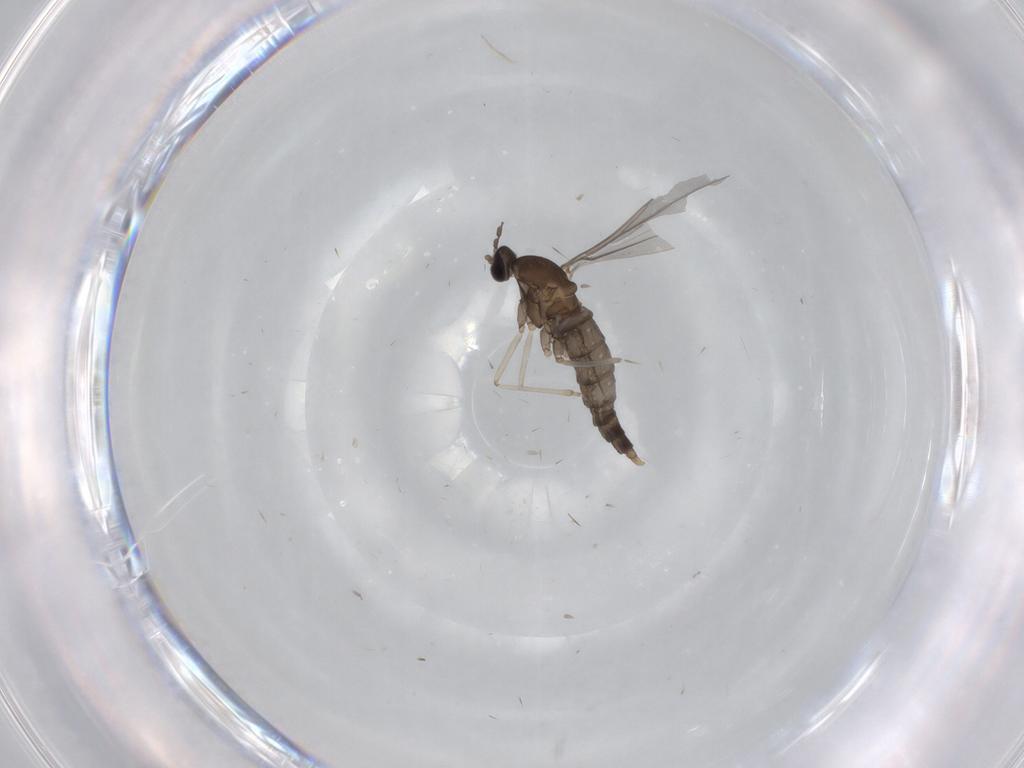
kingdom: Animalia
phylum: Arthropoda
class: Insecta
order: Diptera
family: Cecidomyiidae
